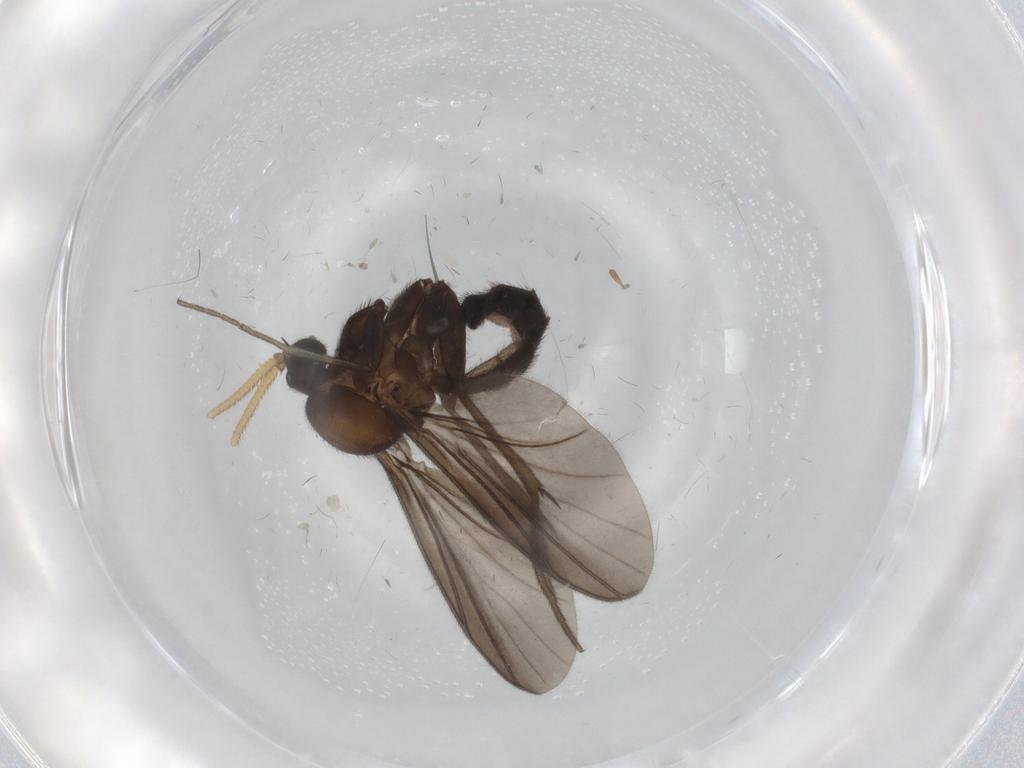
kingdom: Animalia
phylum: Arthropoda
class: Insecta
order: Diptera
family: Mycetophilidae
